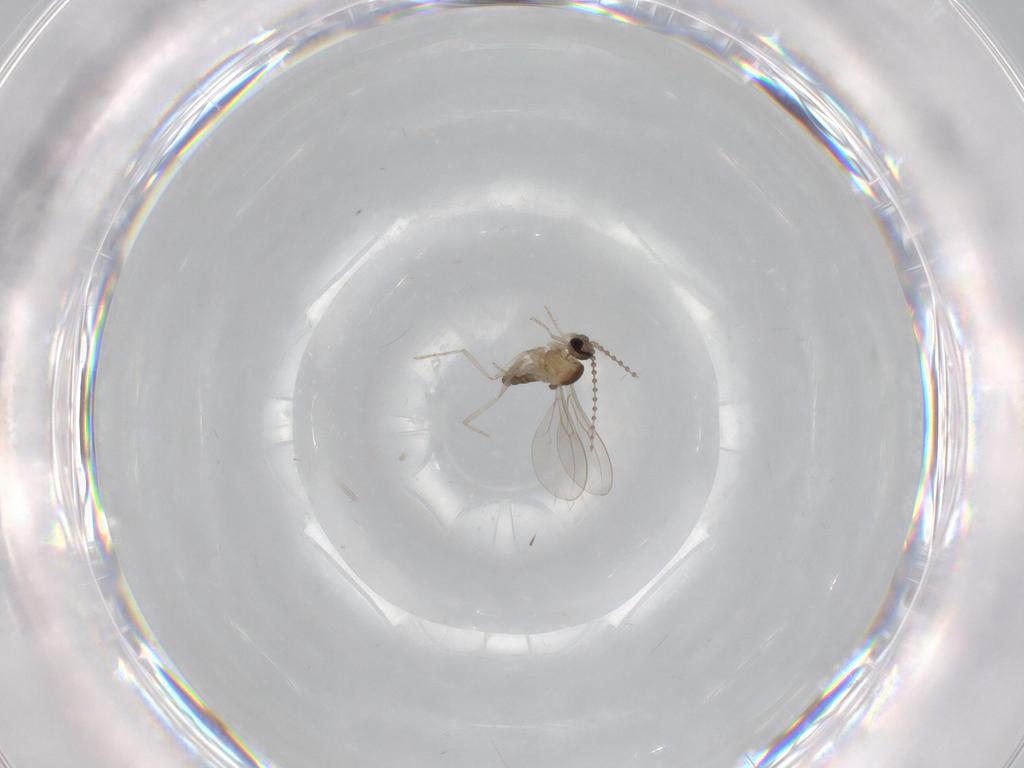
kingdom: Animalia
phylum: Arthropoda
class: Insecta
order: Diptera
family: Cecidomyiidae
